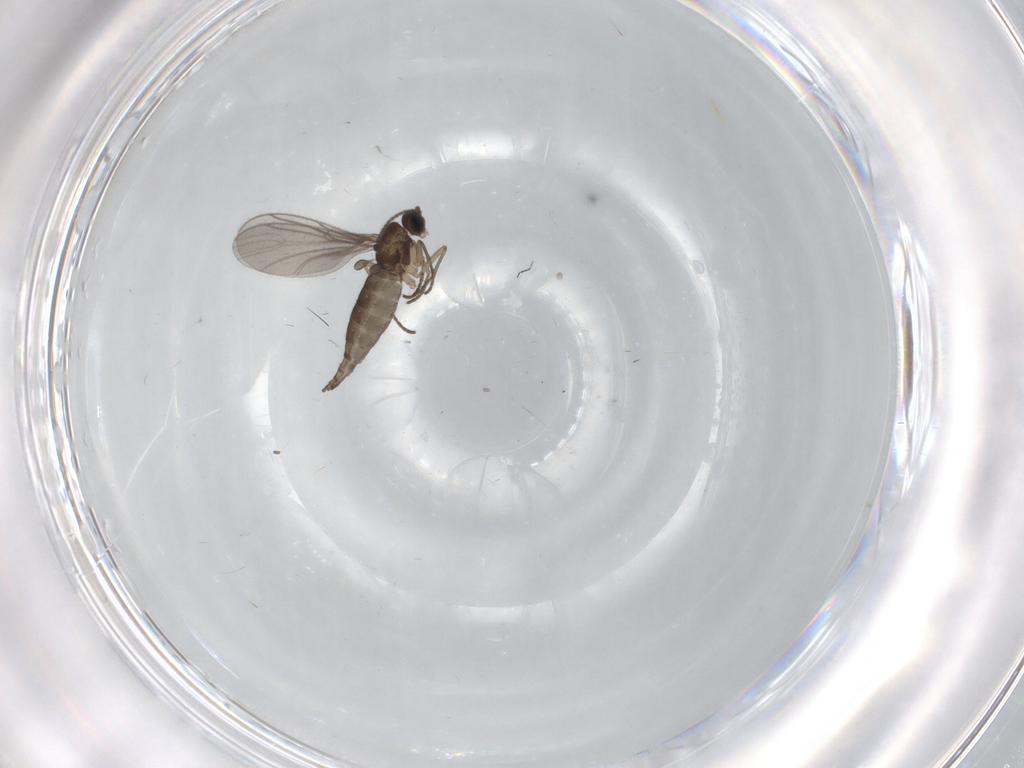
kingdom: Animalia
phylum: Arthropoda
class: Insecta
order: Diptera
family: Sciaridae
